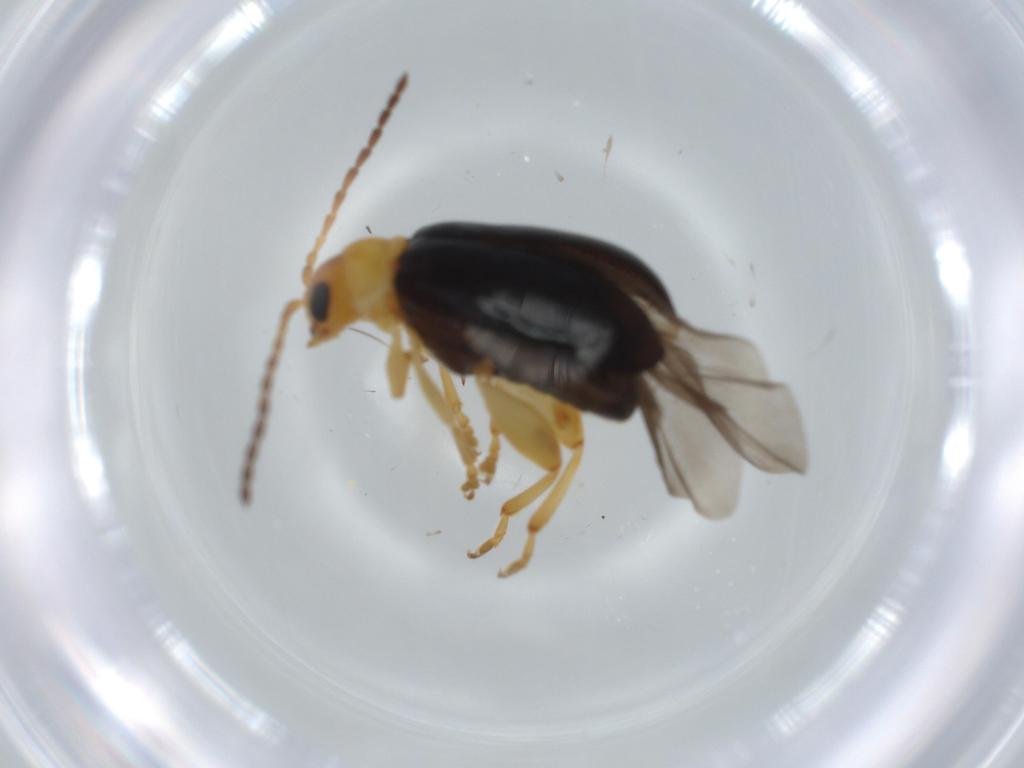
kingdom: Animalia
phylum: Arthropoda
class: Insecta
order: Coleoptera
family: Chrysomelidae
